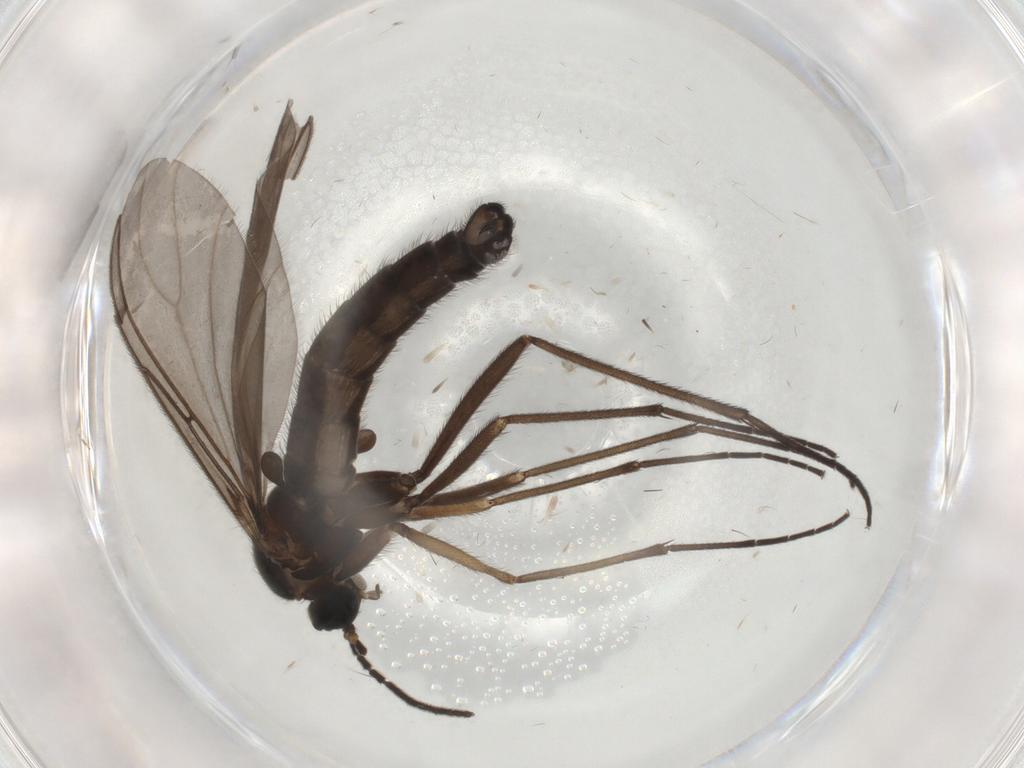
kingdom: Animalia
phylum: Arthropoda
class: Insecta
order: Diptera
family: Sciaridae
